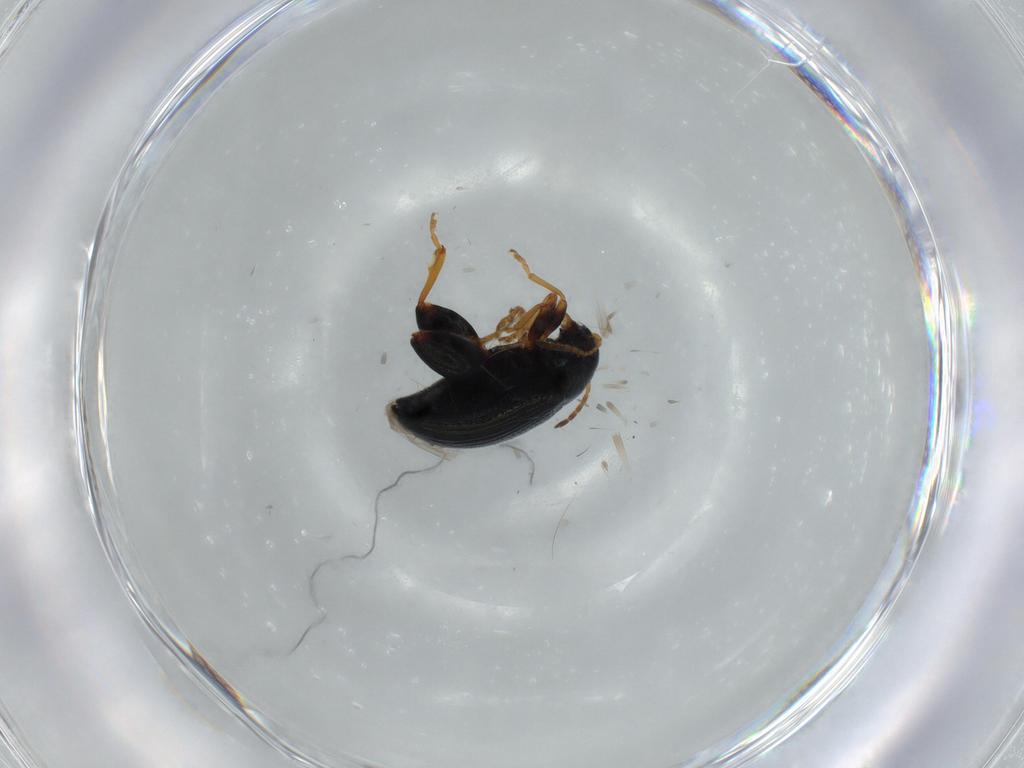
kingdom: Animalia
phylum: Arthropoda
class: Insecta
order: Coleoptera
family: Chrysomelidae
